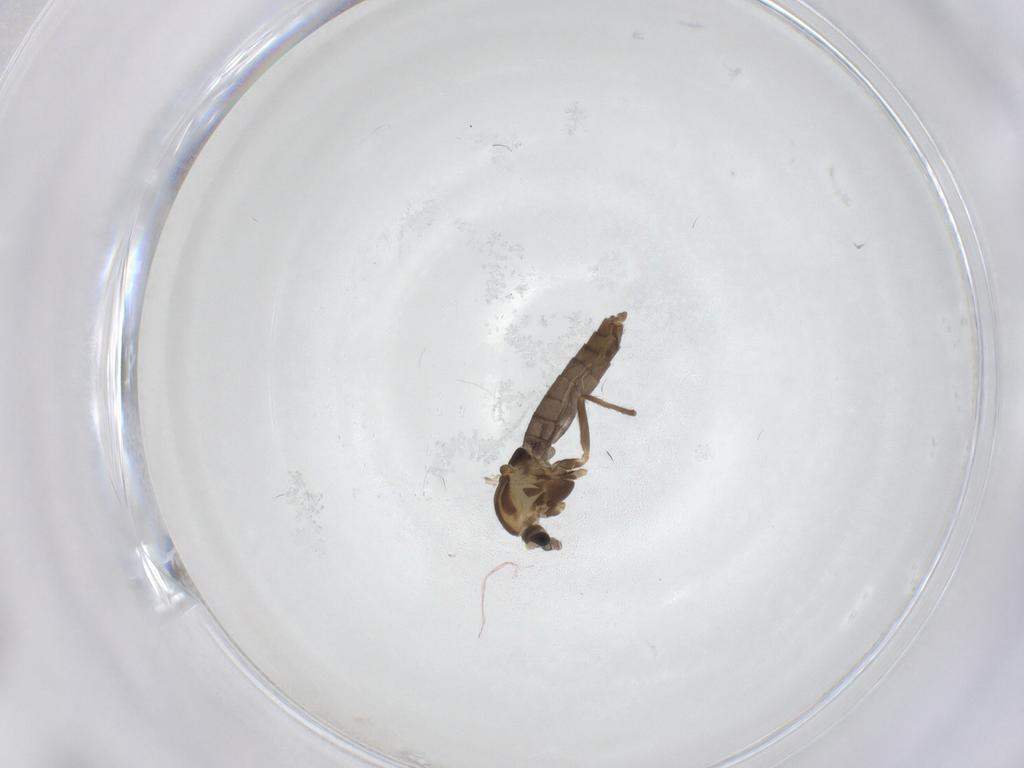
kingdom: Animalia
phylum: Arthropoda
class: Insecta
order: Diptera
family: Chironomidae
